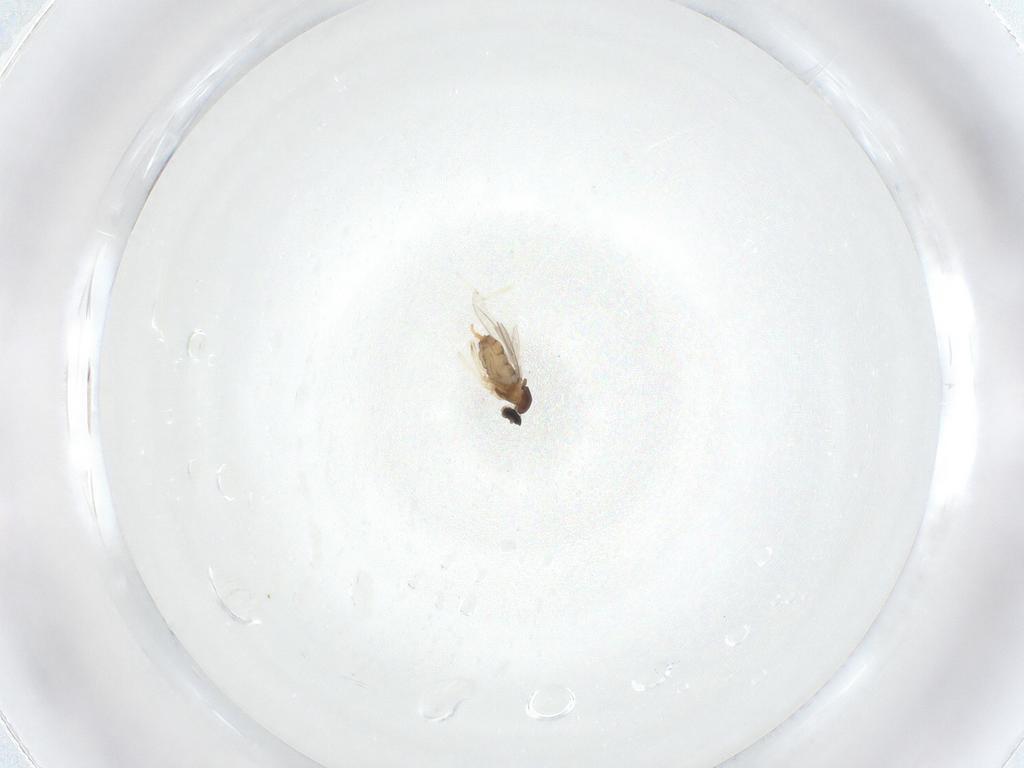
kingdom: Animalia
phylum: Arthropoda
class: Insecta
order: Diptera
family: Cecidomyiidae
